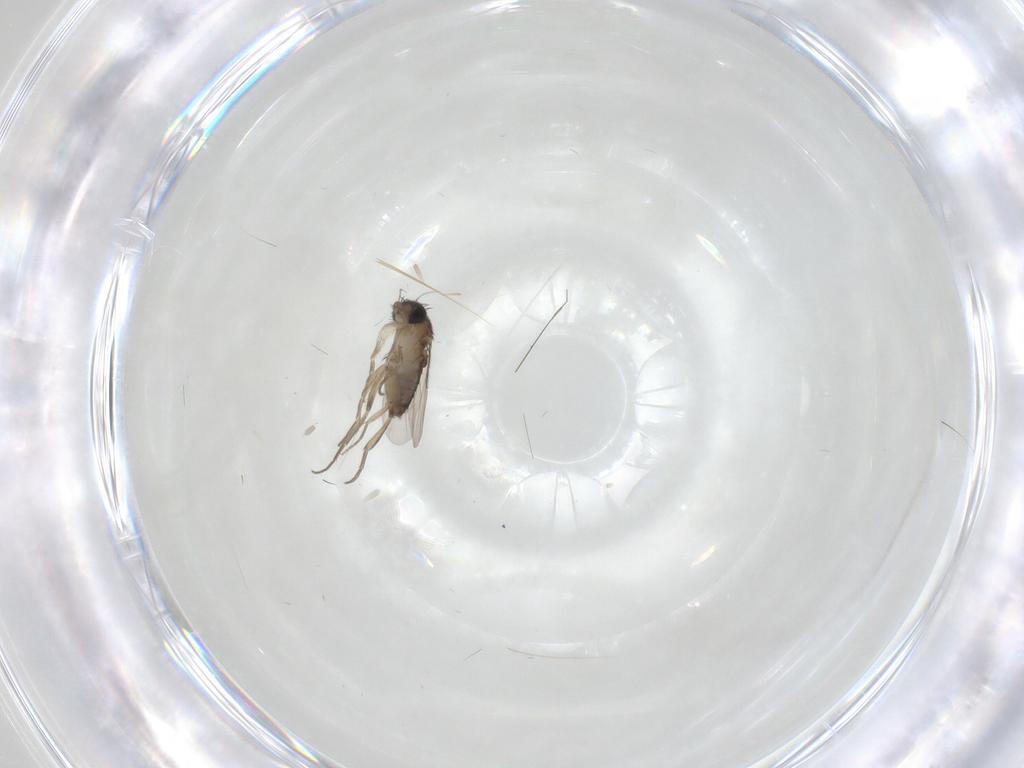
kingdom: Animalia
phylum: Arthropoda
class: Insecta
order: Diptera
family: Phoridae
